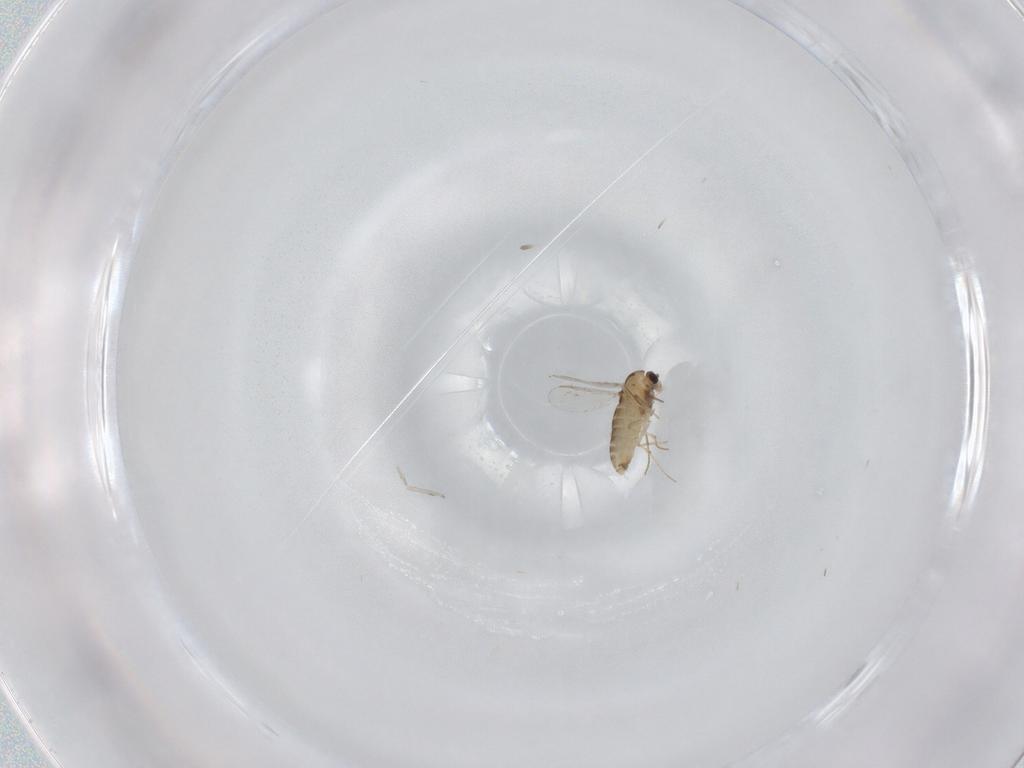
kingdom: Animalia
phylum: Arthropoda
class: Insecta
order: Diptera
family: Chironomidae
